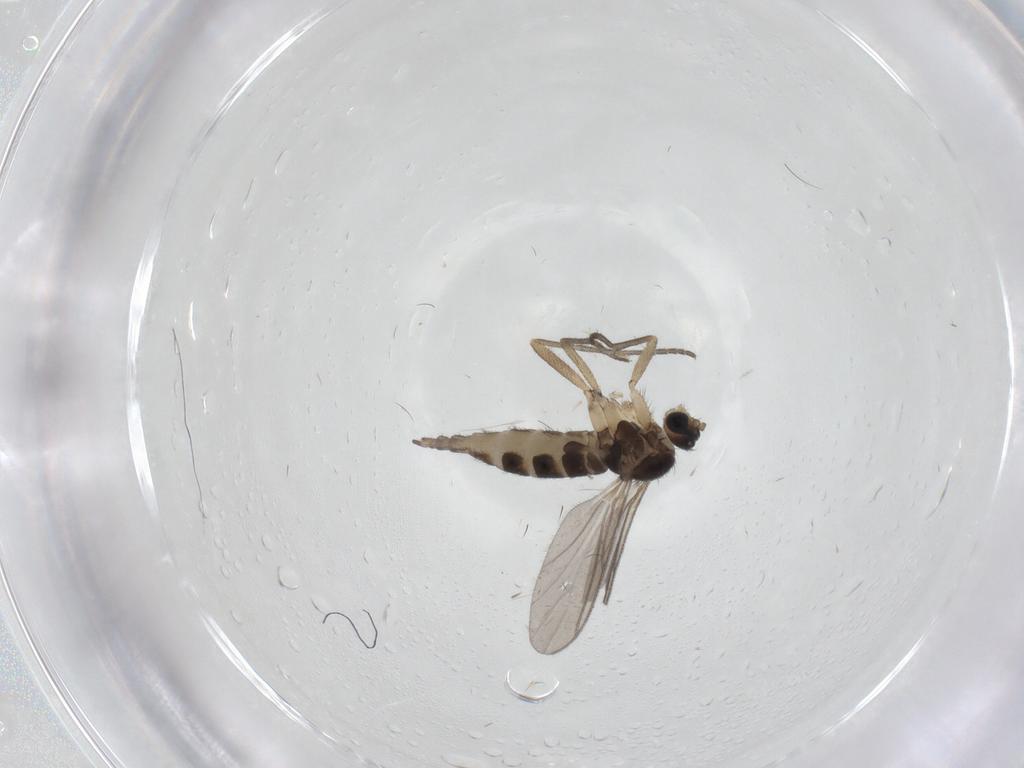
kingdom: Animalia
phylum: Arthropoda
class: Insecta
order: Diptera
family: Sciaridae
